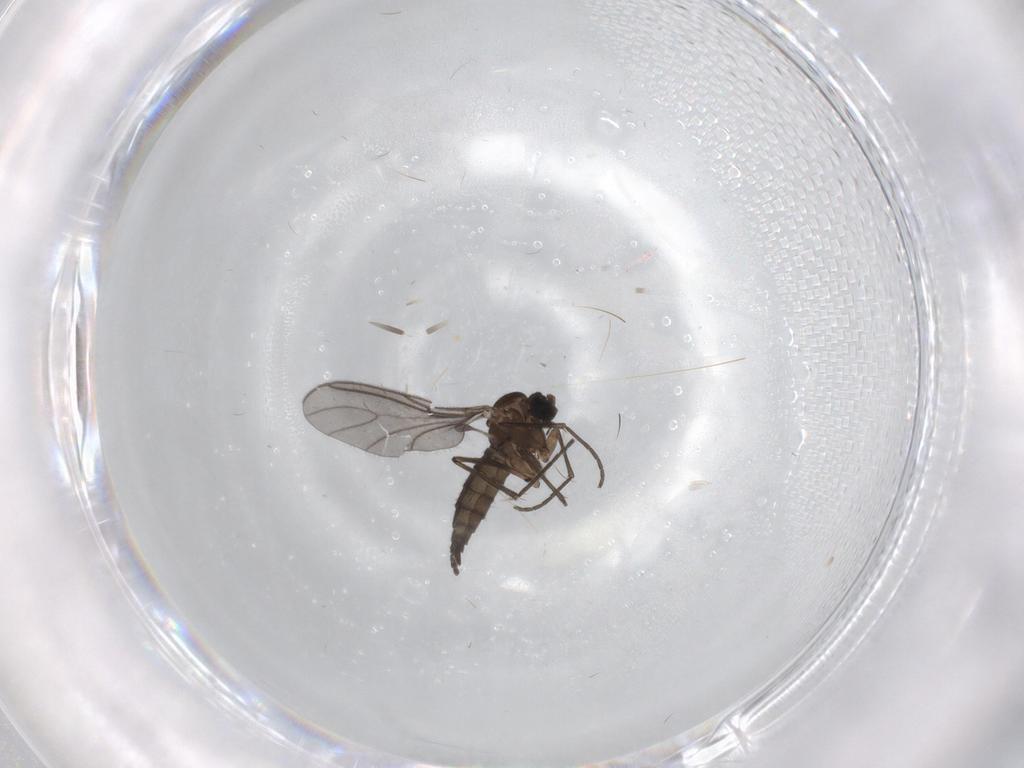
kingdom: Animalia
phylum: Arthropoda
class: Insecta
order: Diptera
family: Sciaridae
